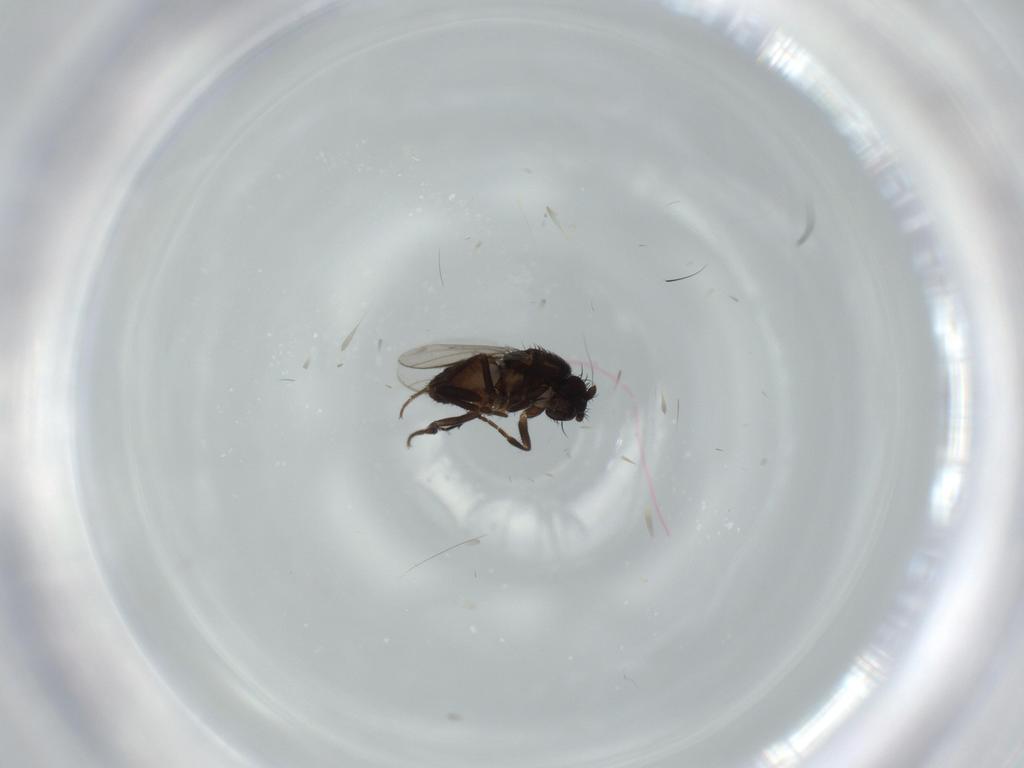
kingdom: Animalia
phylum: Arthropoda
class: Insecta
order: Diptera
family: Sphaeroceridae
